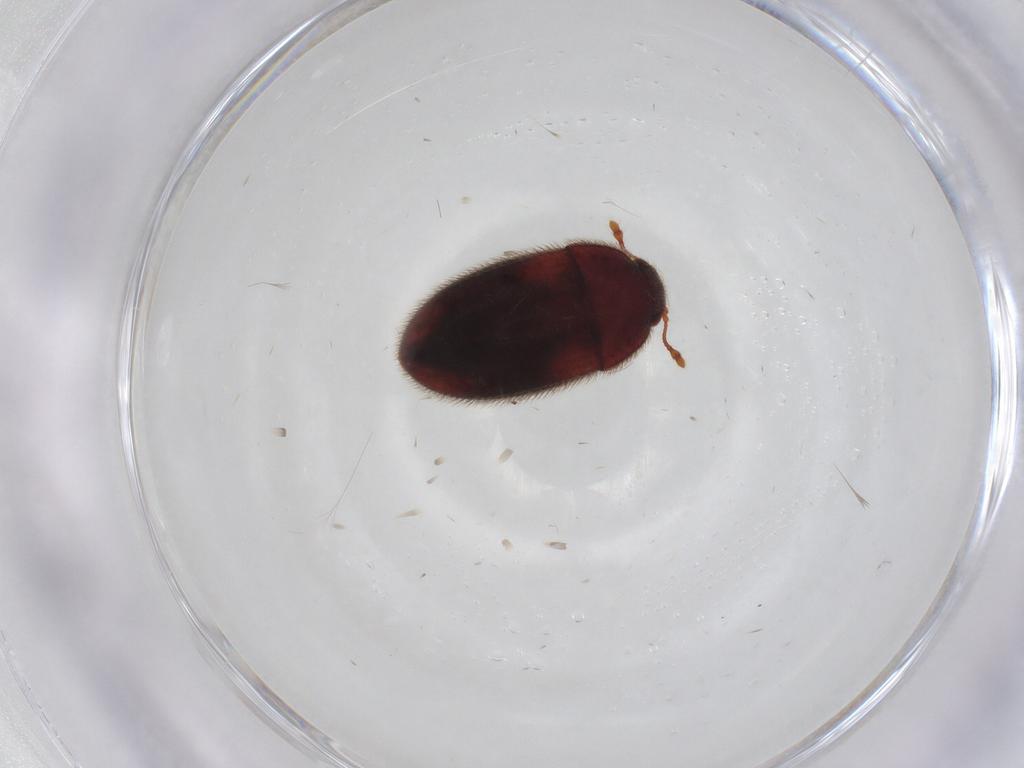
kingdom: Animalia
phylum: Arthropoda
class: Insecta
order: Coleoptera
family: Biphyllidae
